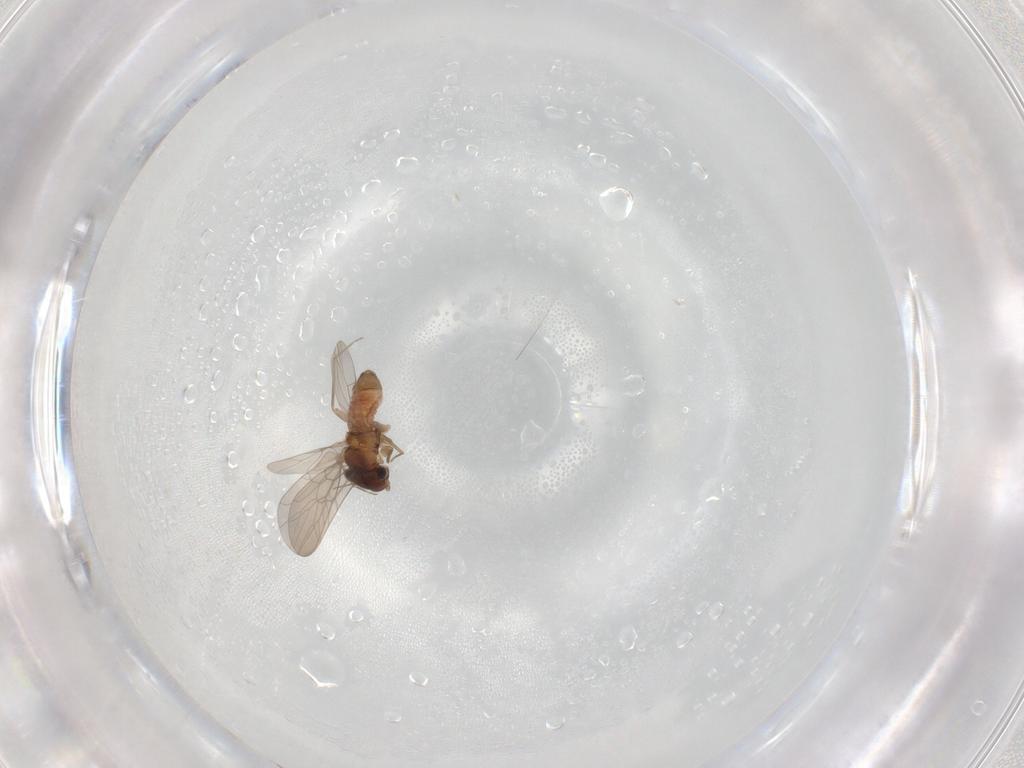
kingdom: Animalia
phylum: Arthropoda
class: Insecta
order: Psocodea
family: Lepidopsocidae
